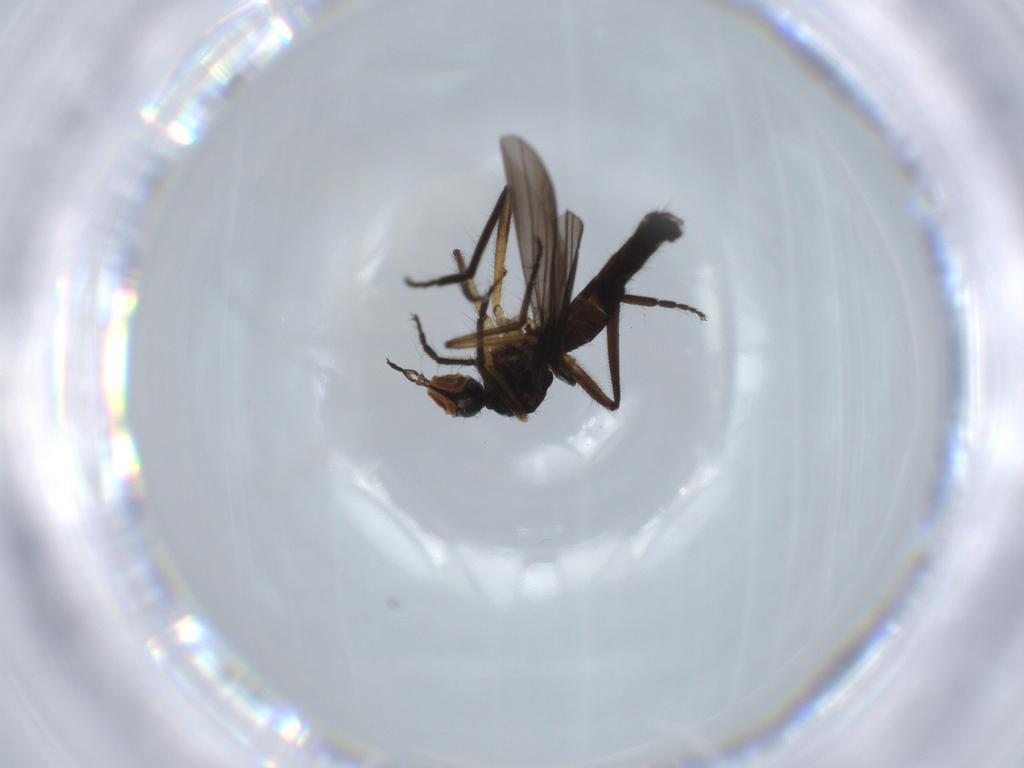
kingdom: Animalia
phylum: Arthropoda
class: Insecta
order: Diptera
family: Empididae
